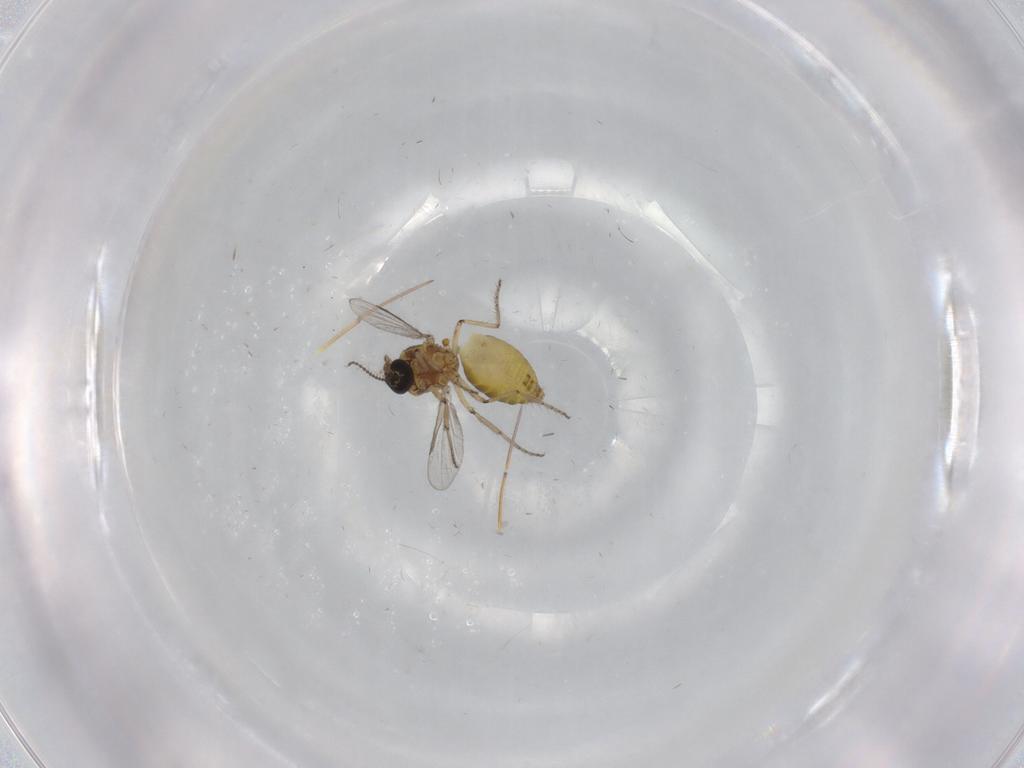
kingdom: Animalia
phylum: Arthropoda
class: Insecta
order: Diptera
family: Ceratopogonidae
